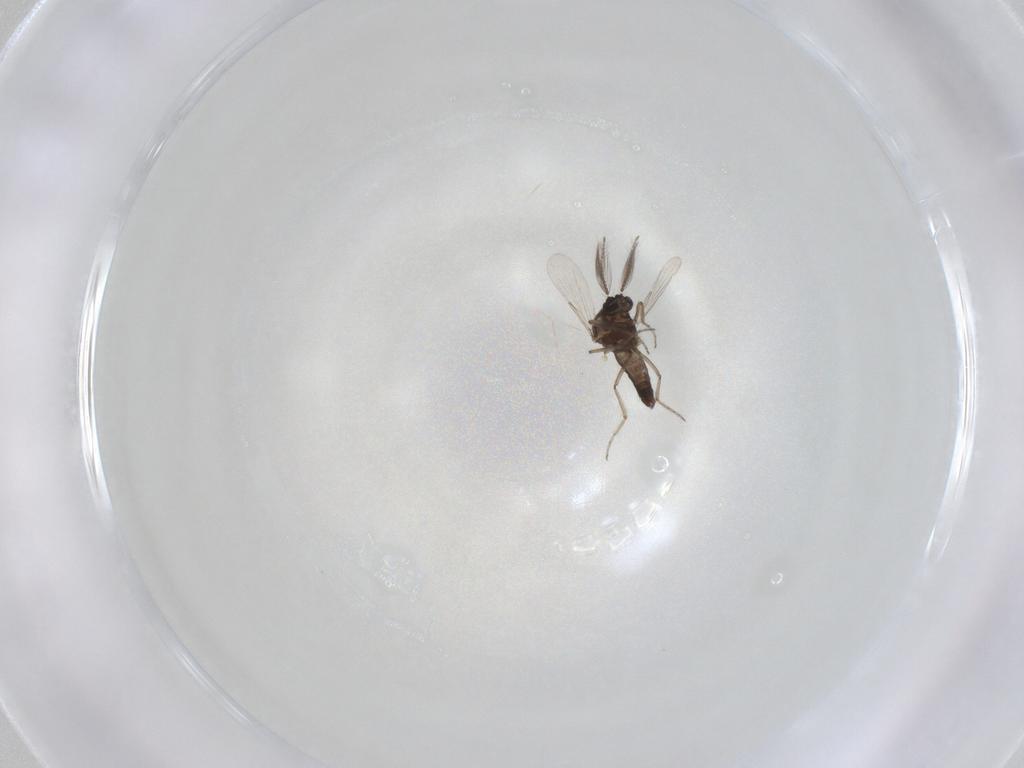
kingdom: Animalia
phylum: Arthropoda
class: Insecta
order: Diptera
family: Ceratopogonidae
